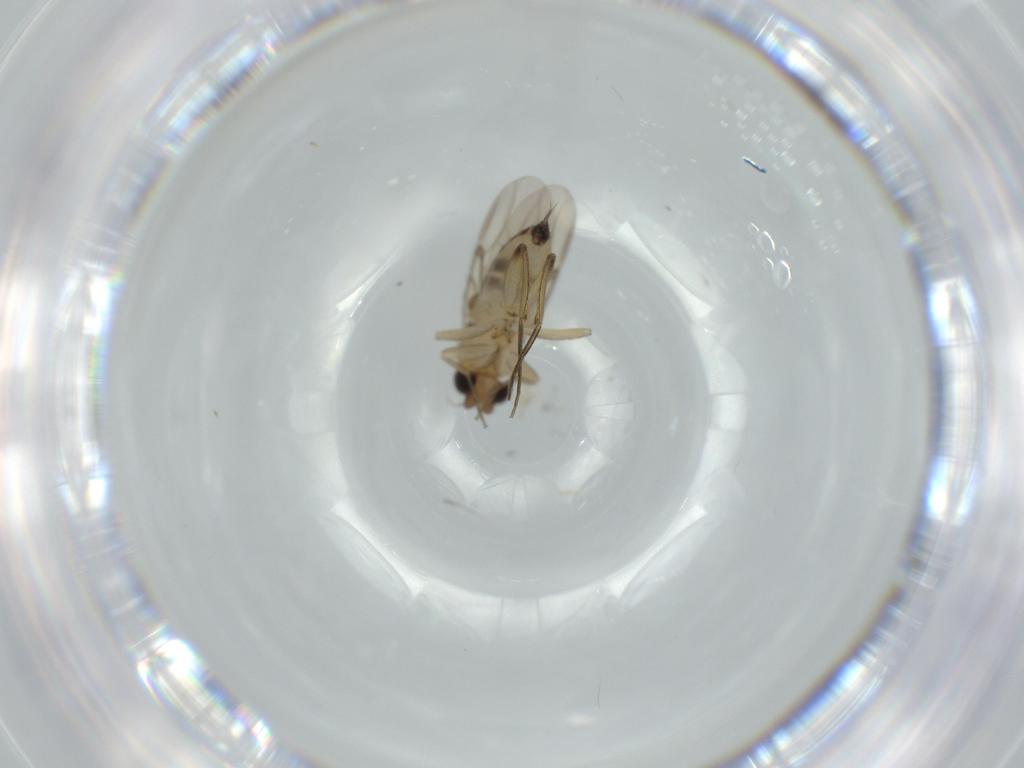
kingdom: Animalia
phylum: Arthropoda
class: Insecta
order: Diptera
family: Phoridae
